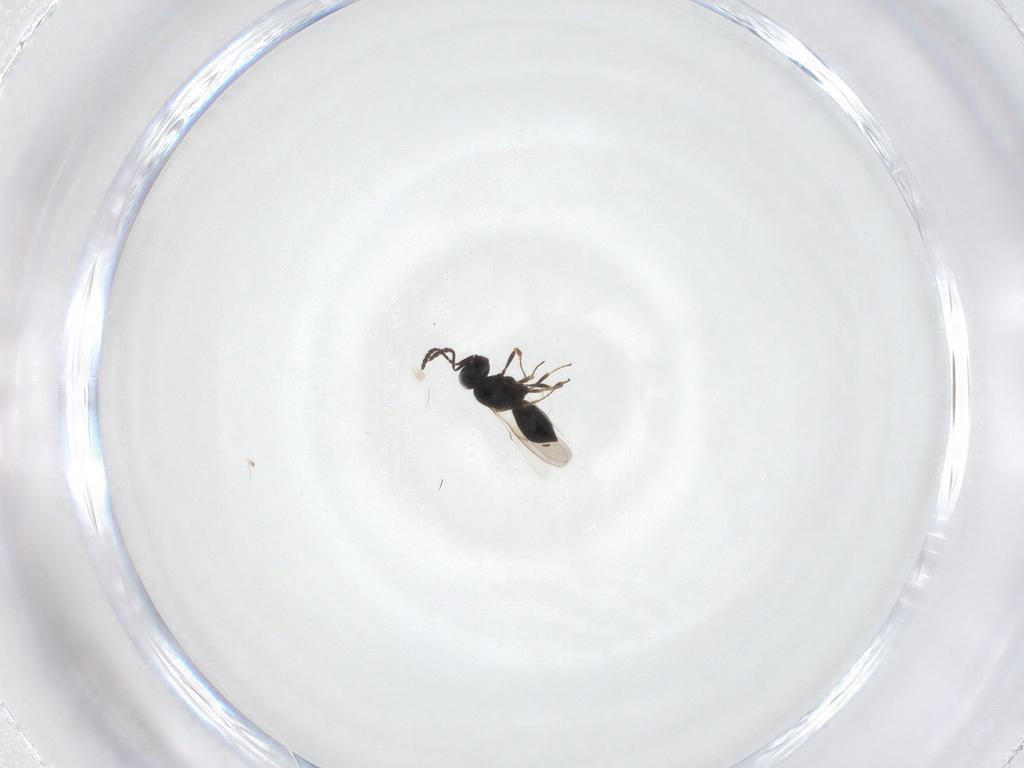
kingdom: Animalia
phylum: Arthropoda
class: Insecta
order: Hymenoptera
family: Scelionidae
